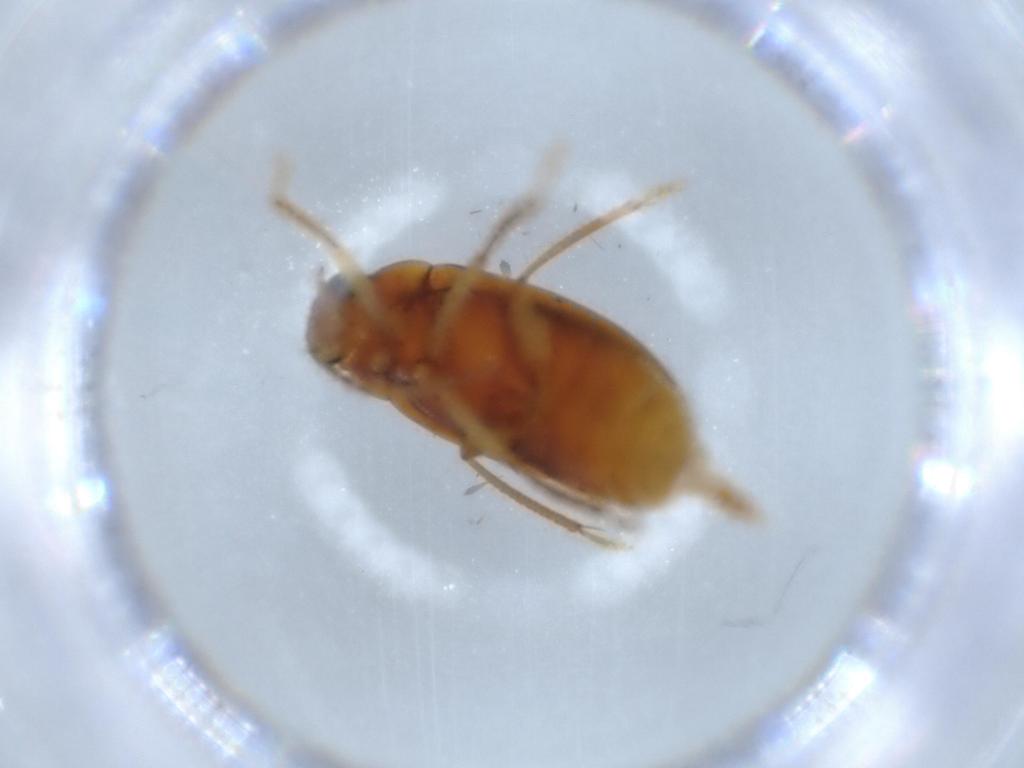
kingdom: Animalia
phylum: Arthropoda
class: Insecta
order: Coleoptera
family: Ptilodactylidae
